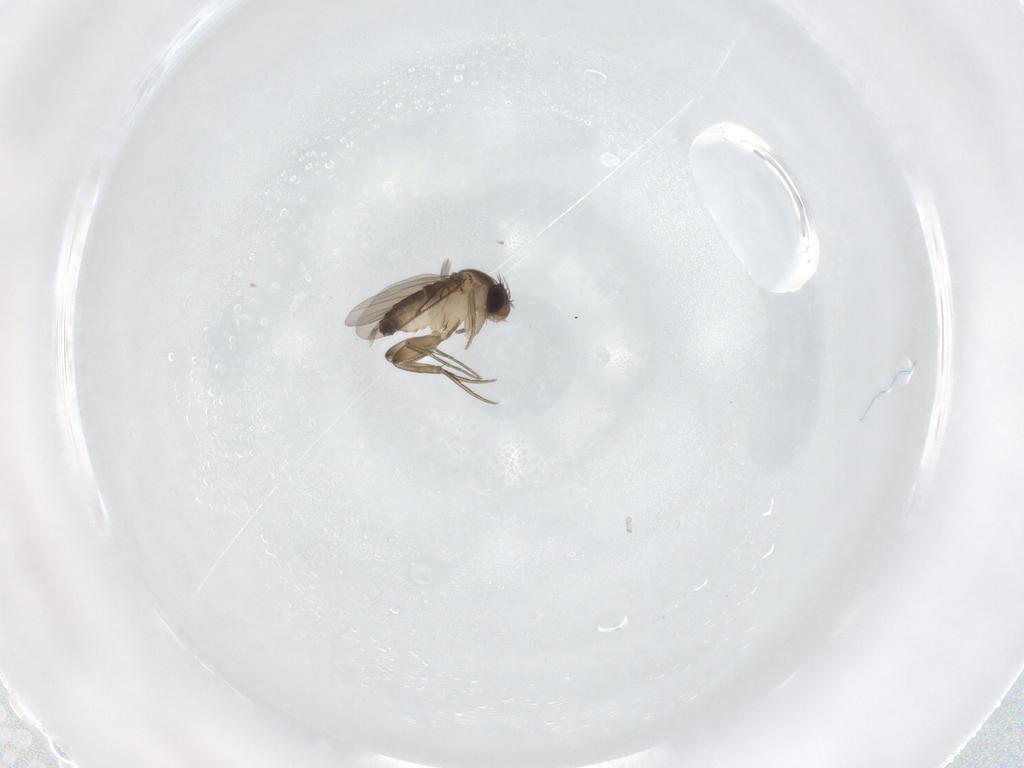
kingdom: Animalia
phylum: Arthropoda
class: Insecta
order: Diptera
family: Phoridae
